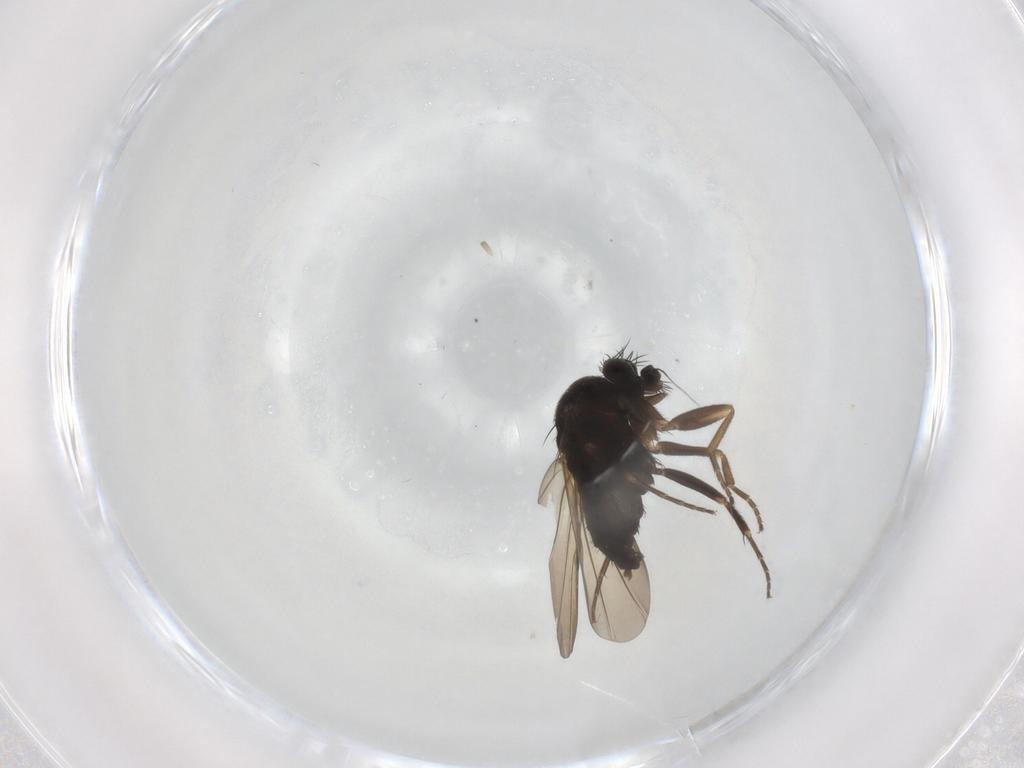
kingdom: Animalia
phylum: Arthropoda
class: Insecta
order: Diptera
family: Phoridae
